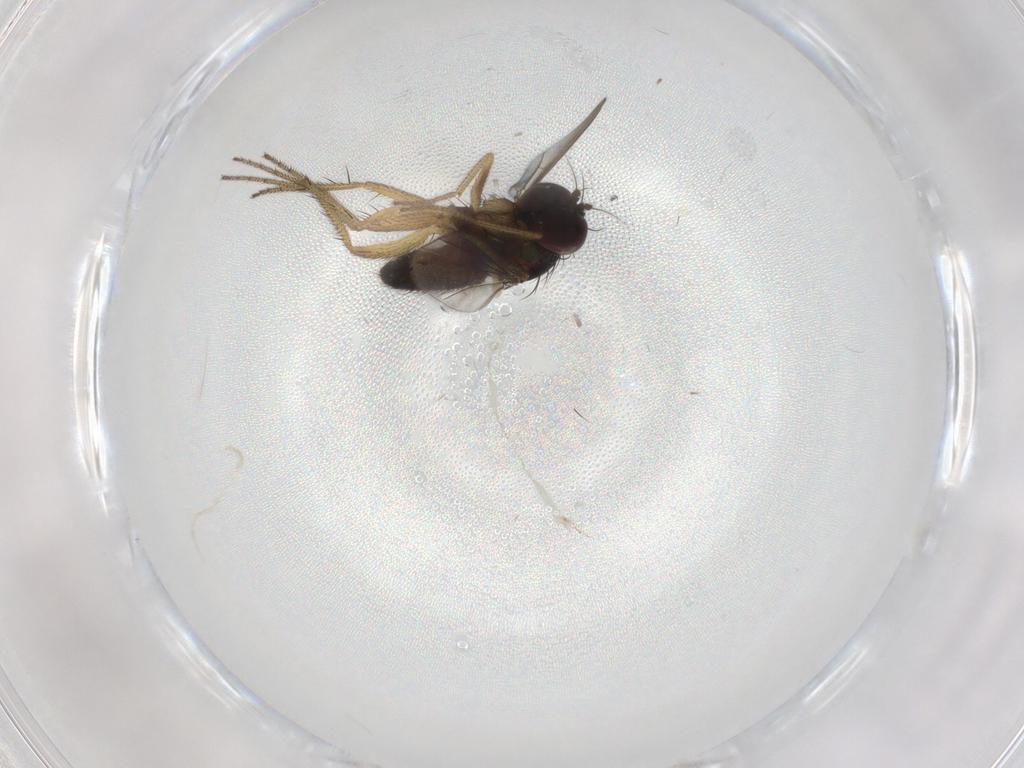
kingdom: Animalia
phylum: Arthropoda
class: Insecta
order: Diptera
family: Dolichopodidae
